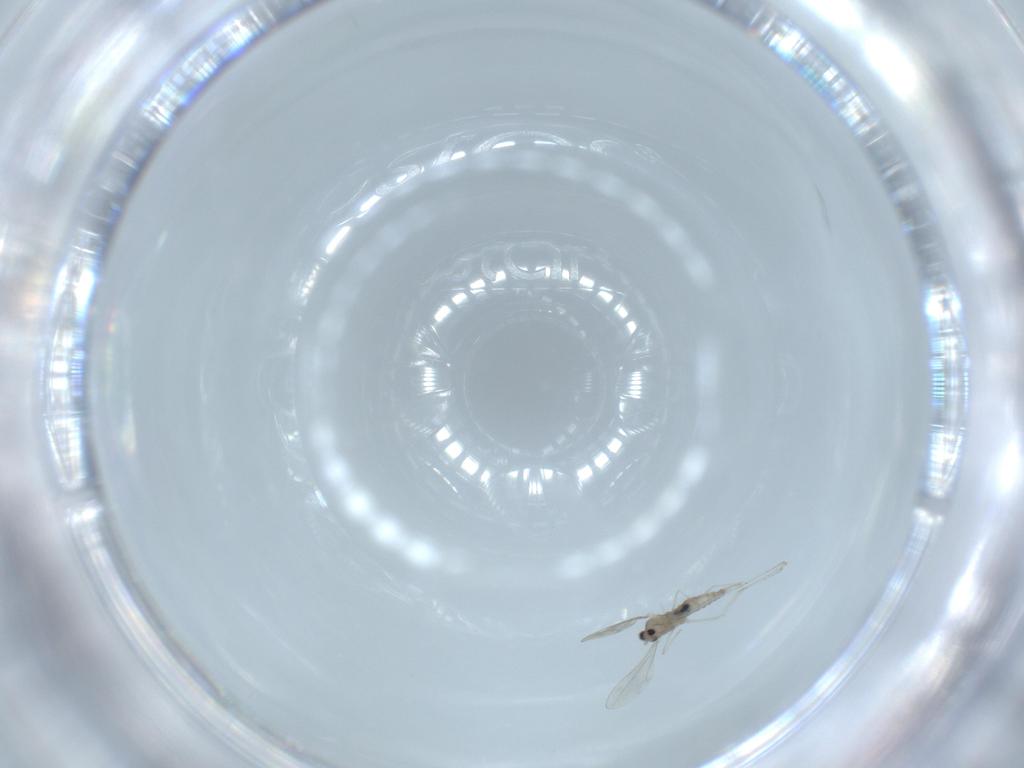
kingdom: Animalia
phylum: Arthropoda
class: Insecta
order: Diptera
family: Cecidomyiidae
